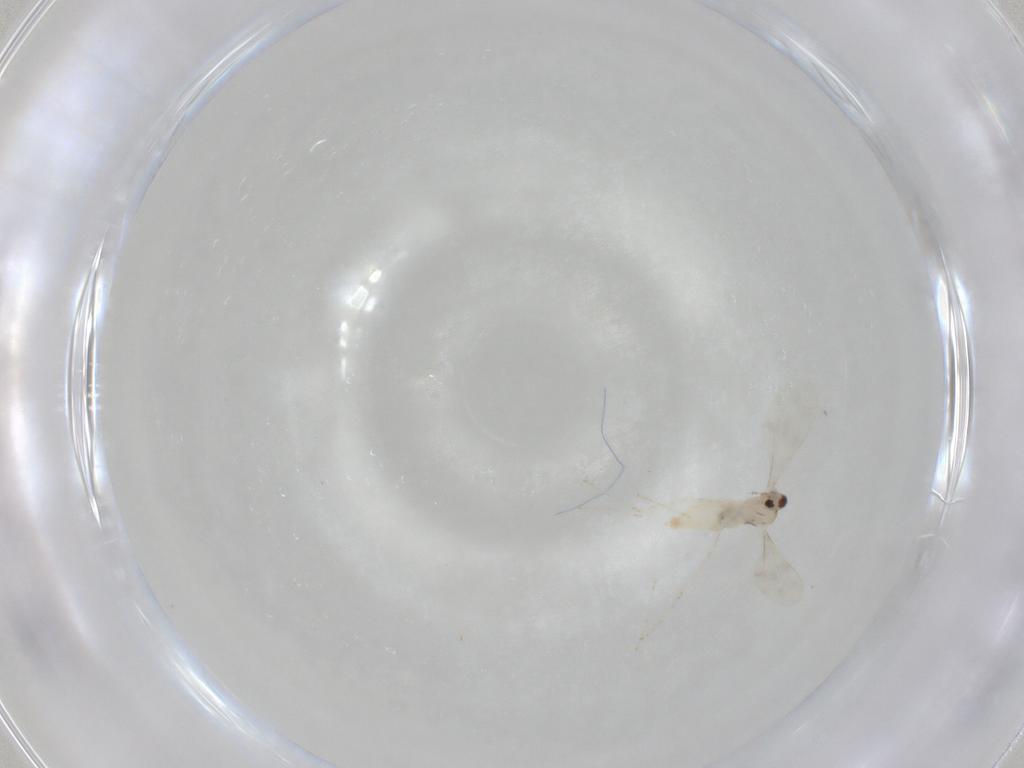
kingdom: Animalia
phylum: Arthropoda
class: Insecta
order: Diptera
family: Cecidomyiidae
